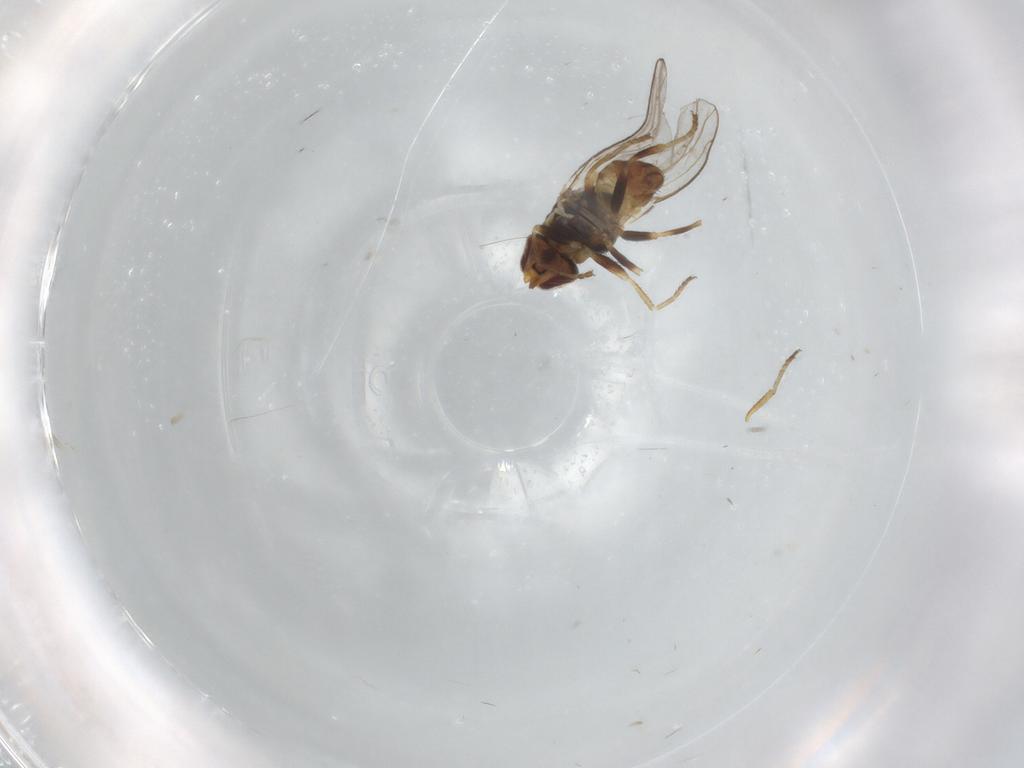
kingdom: Animalia
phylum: Arthropoda
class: Insecta
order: Diptera
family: Chloropidae
